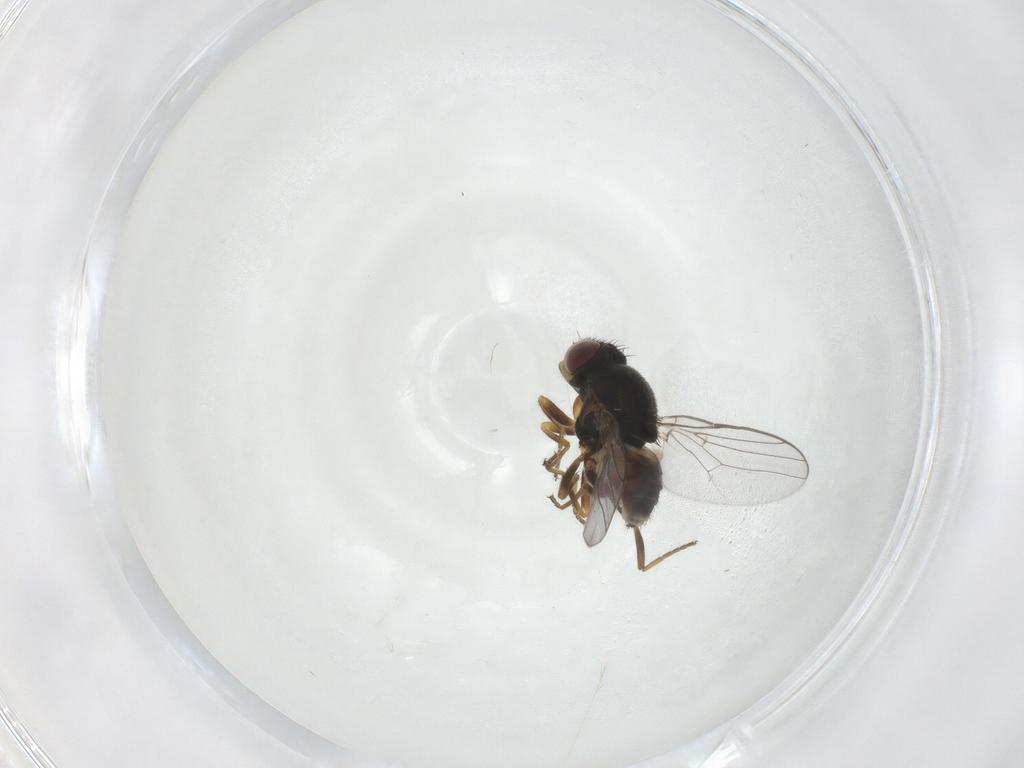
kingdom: Animalia
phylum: Arthropoda
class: Insecta
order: Diptera
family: Chloropidae
